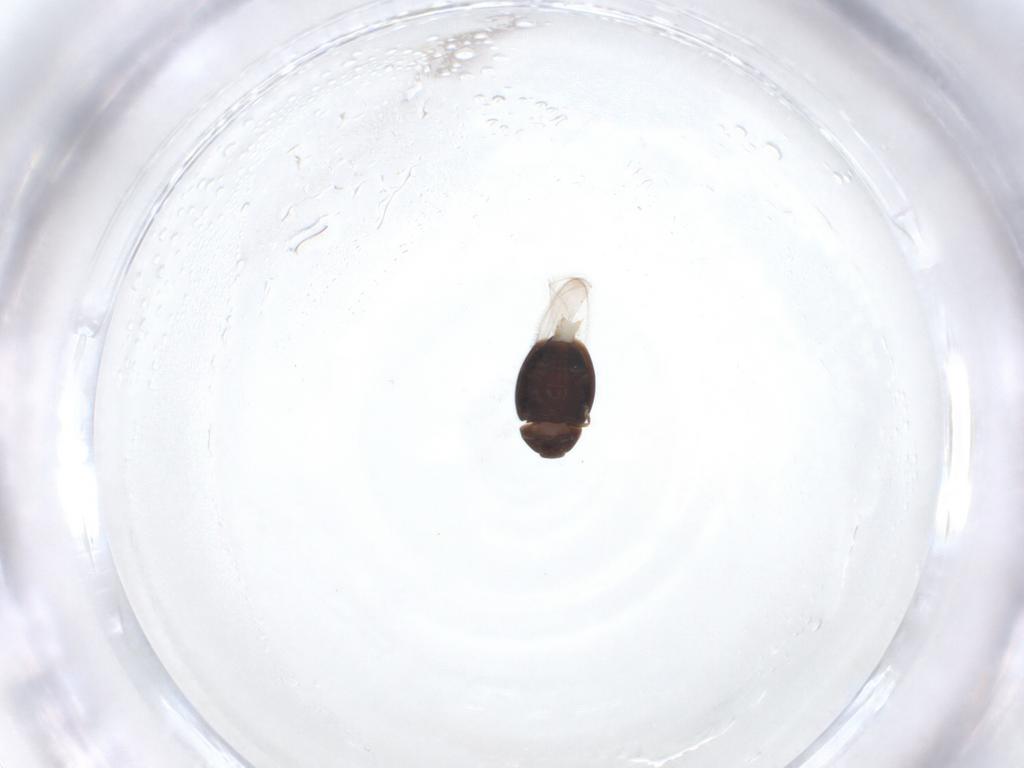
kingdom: Animalia
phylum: Arthropoda
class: Insecta
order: Coleoptera
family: Corylophidae
